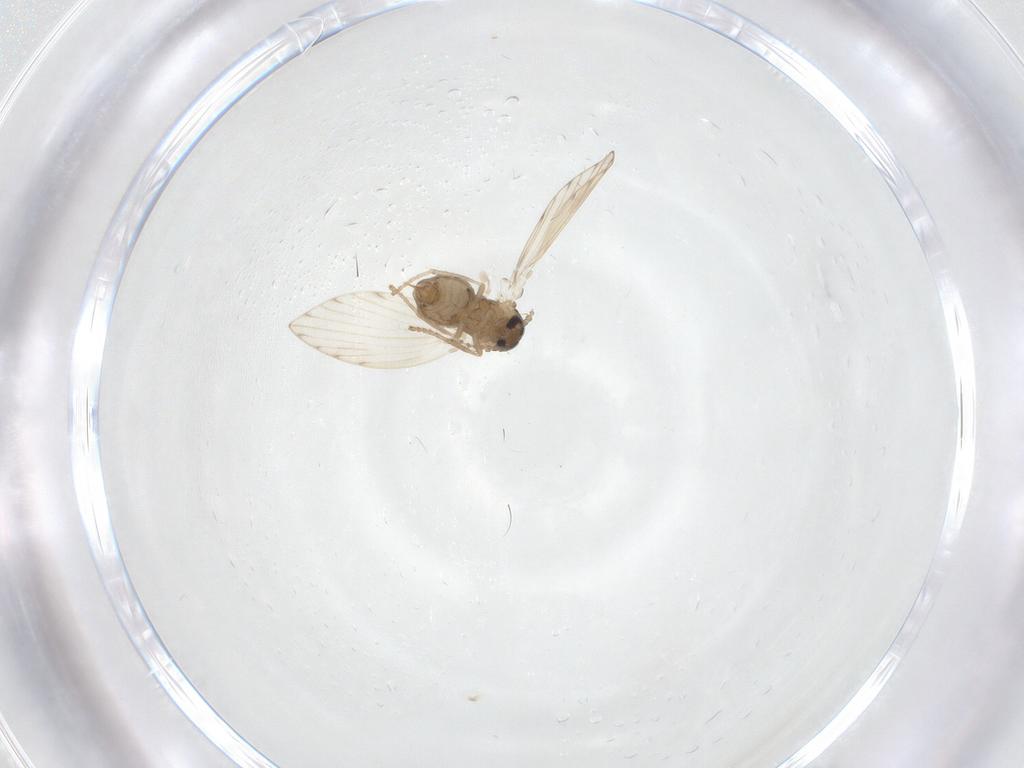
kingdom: Animalia
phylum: Arthropoda
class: Insecta
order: Diptera
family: Psychodidae
